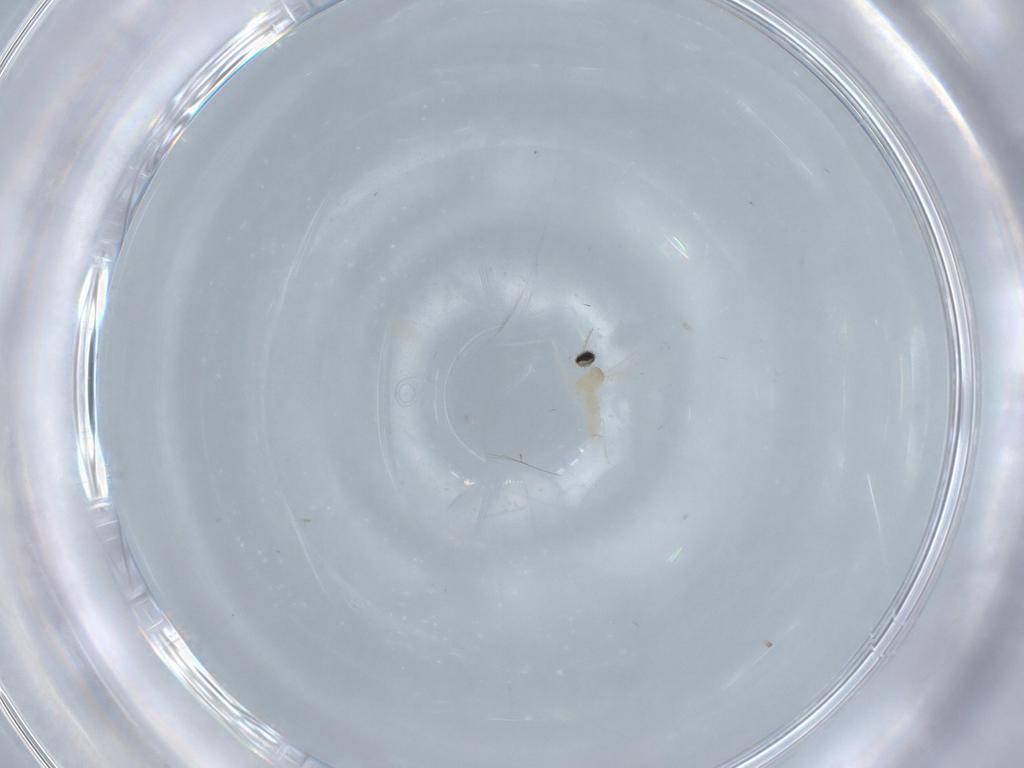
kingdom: Animalia
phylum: Arthropoda
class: Insecta
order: Diptera
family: Cecidomyiidae
